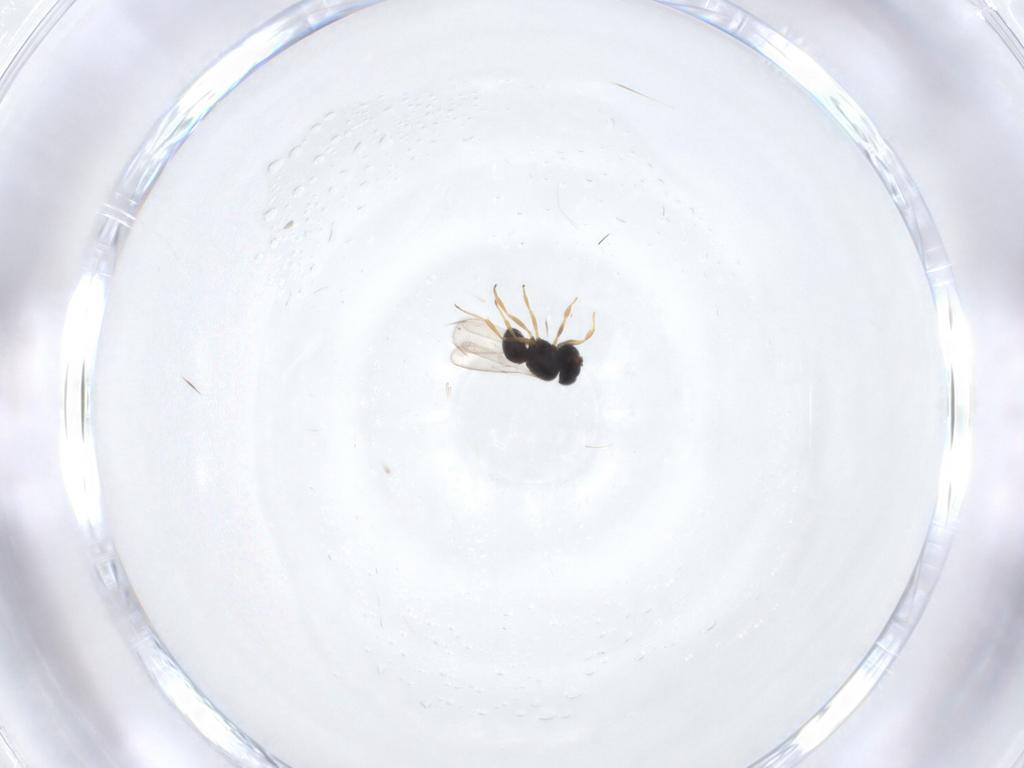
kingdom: Animalia
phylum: Arthropoda
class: Insecta
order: Hymenoptera
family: Scelionidae
